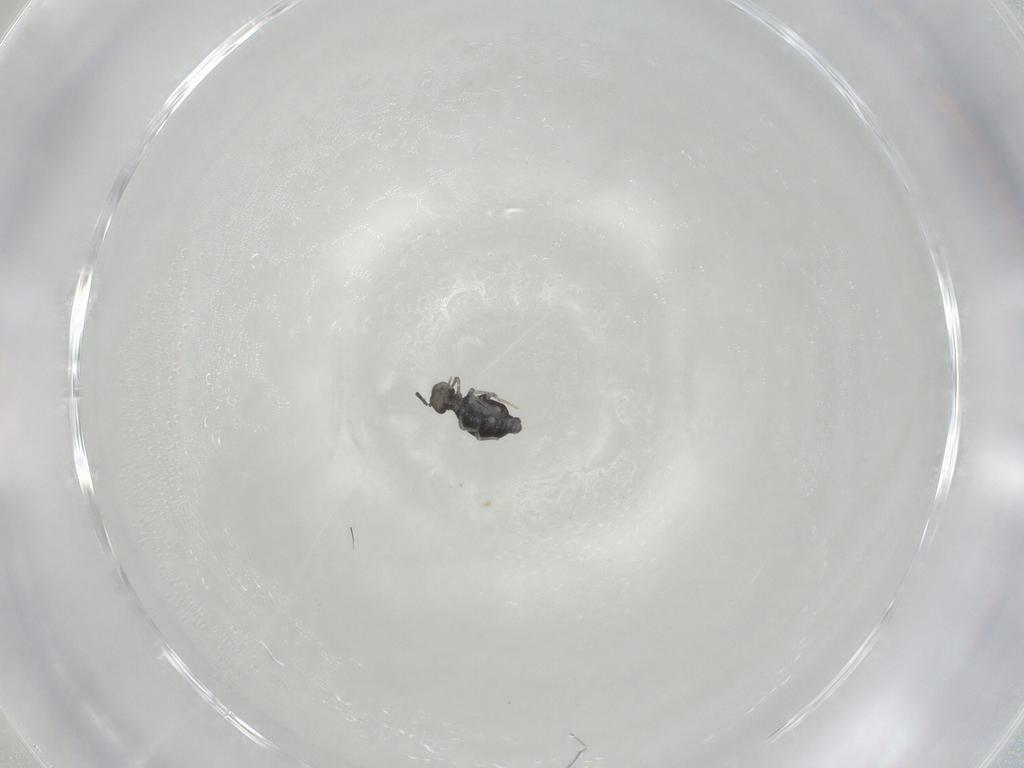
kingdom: Animalia
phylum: Arthropoda
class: Collembola
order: Symphypleona
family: Katiannidae
